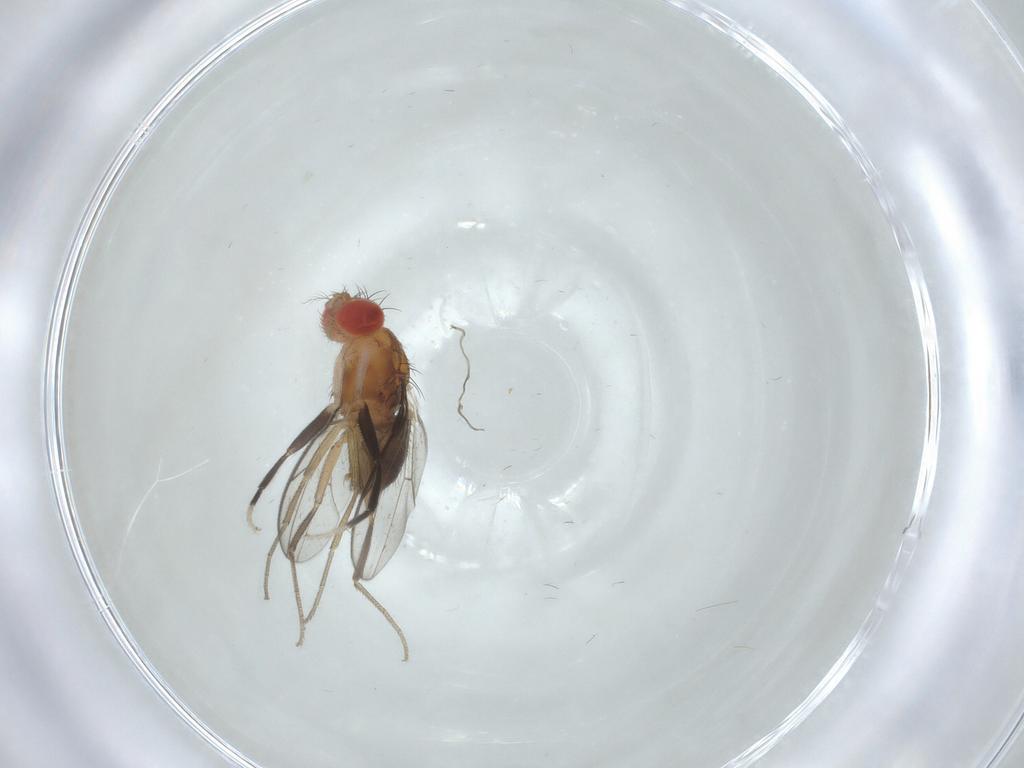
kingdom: Animalia
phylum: Arthropoda
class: Insecta
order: Diptera
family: Drosophilidae
